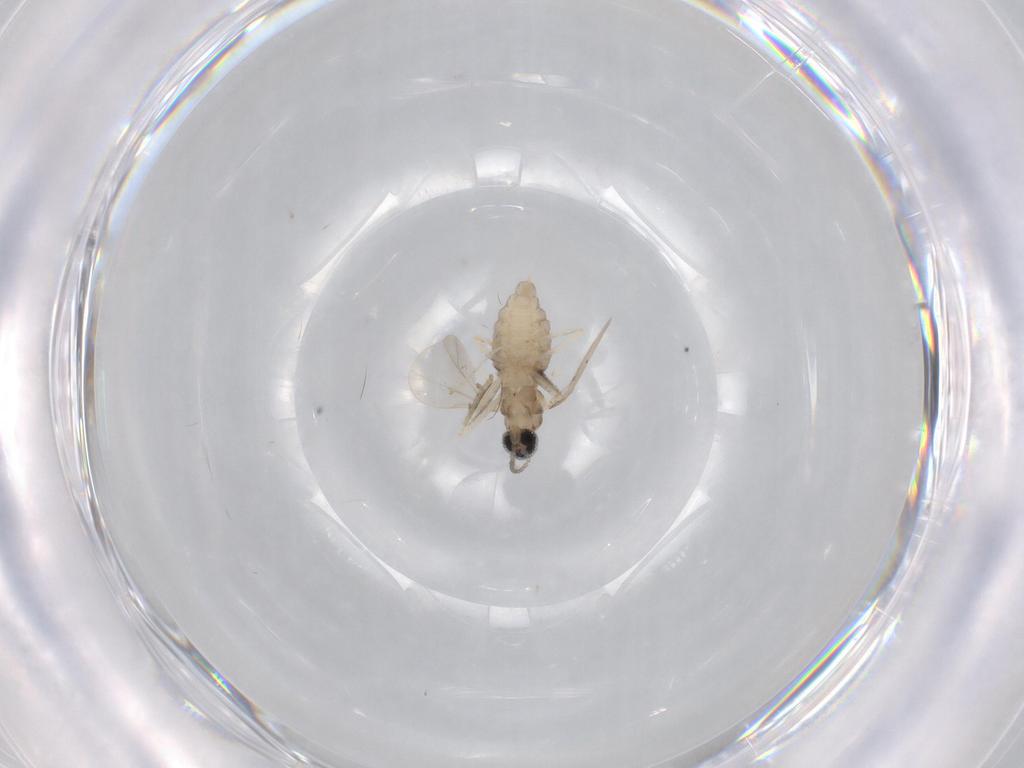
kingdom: Animalia
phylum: Arthropoda
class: Insecta
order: Diptera
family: Cecidomyiidae
